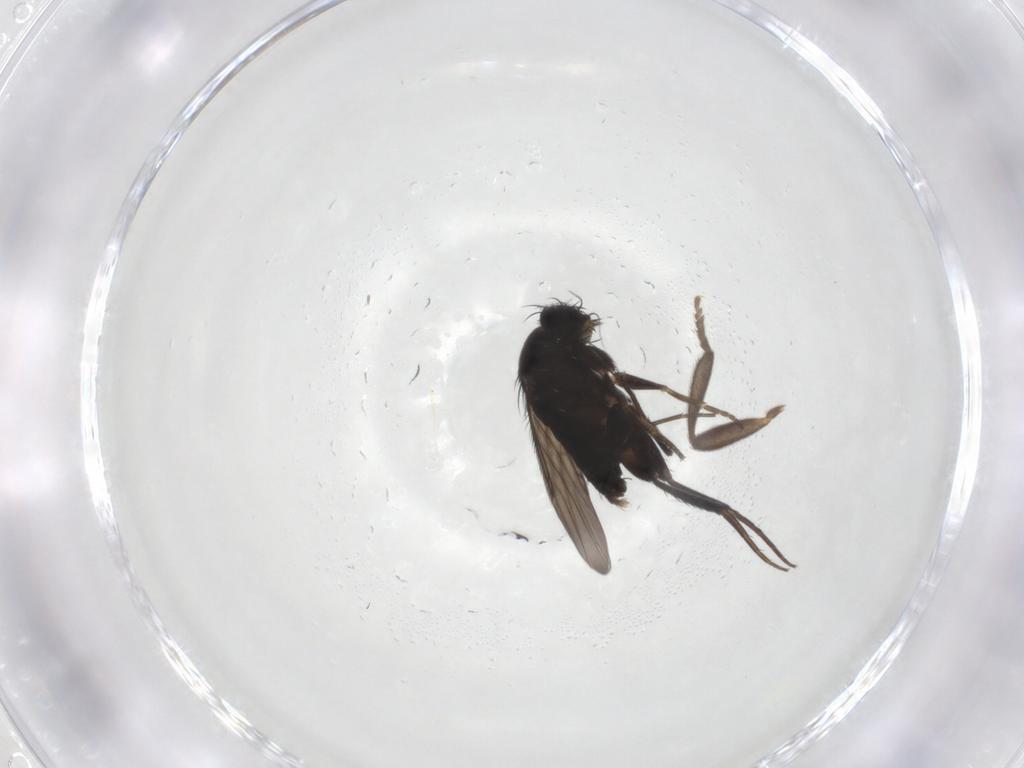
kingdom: Animalia
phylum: Arthropoda
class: Insecta
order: Diptera
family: Phoridae
